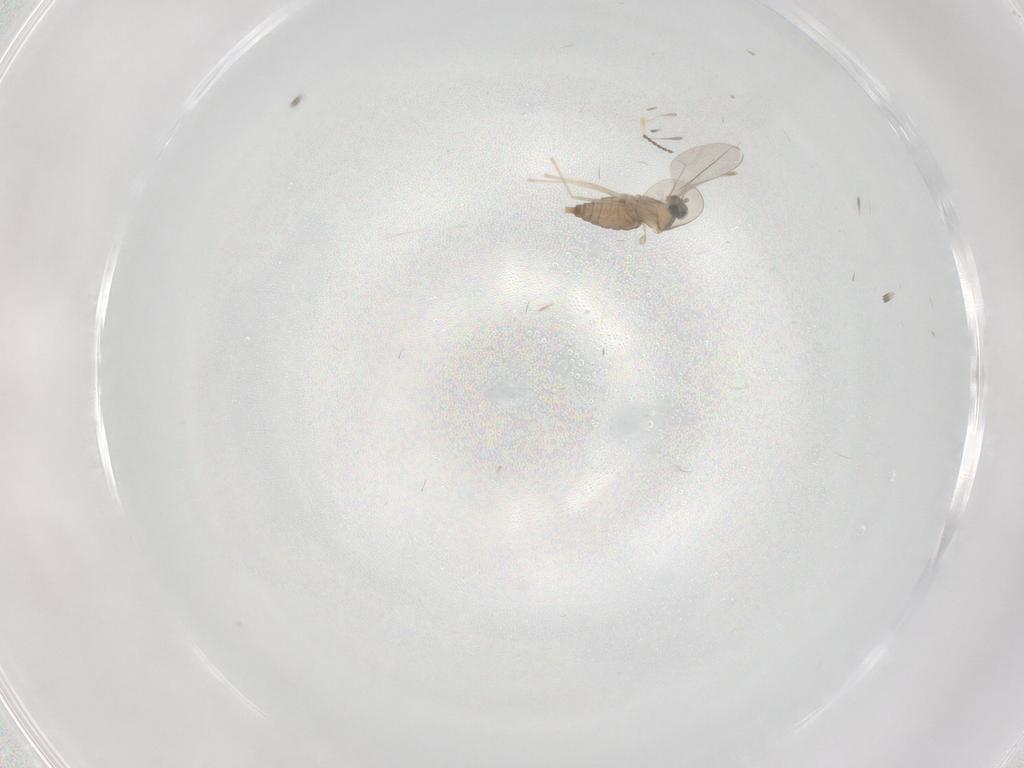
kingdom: Animalia
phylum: Arthropoda
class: Insecta
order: Diptera
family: Cecidomyiidae
